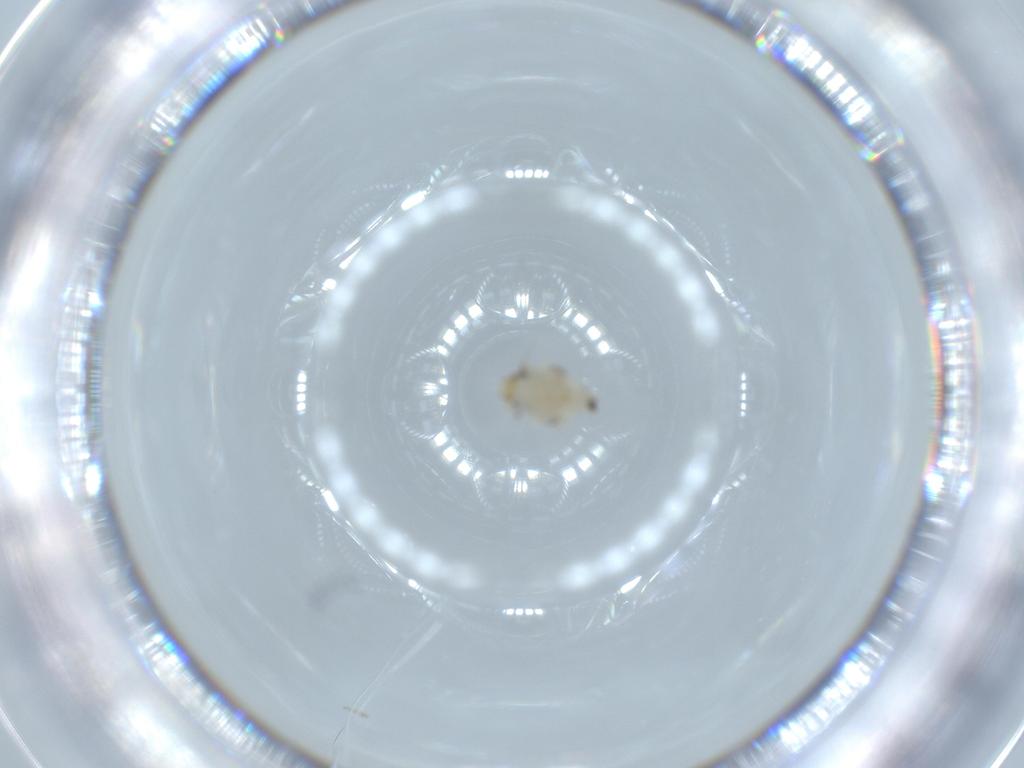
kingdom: Animalia
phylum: Arthropoda
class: Insecta
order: Hemiptera
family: Nogodinidae
